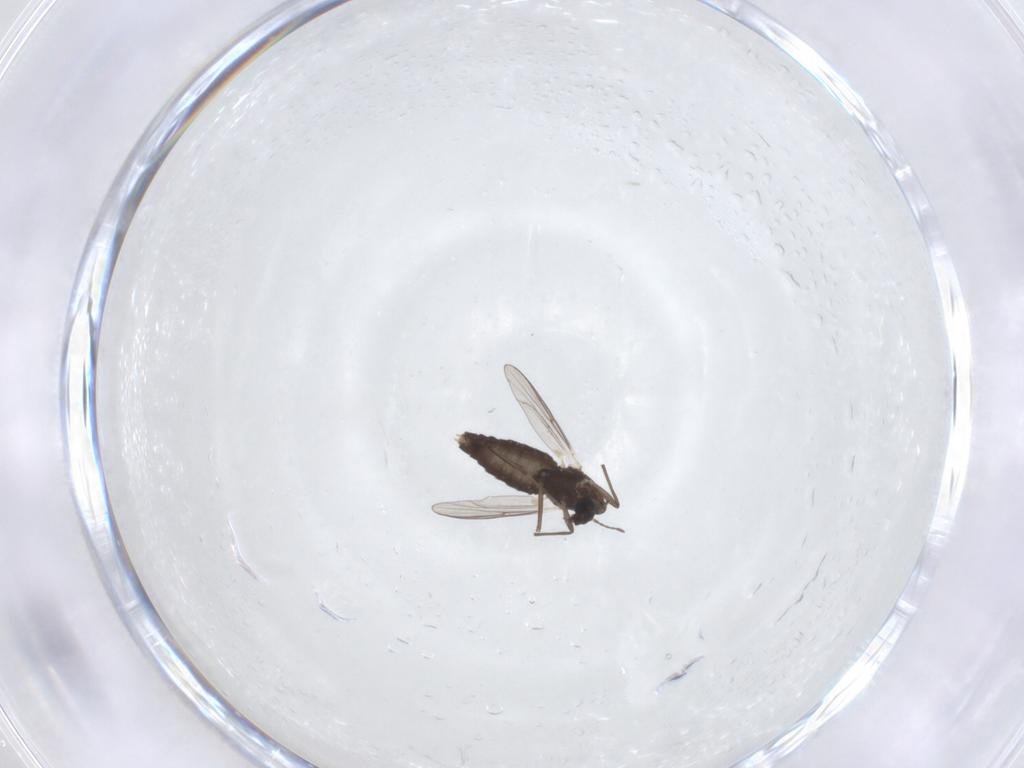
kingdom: Animalia
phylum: Arthropoda
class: Insecta
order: Diptera
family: Chironomidae
